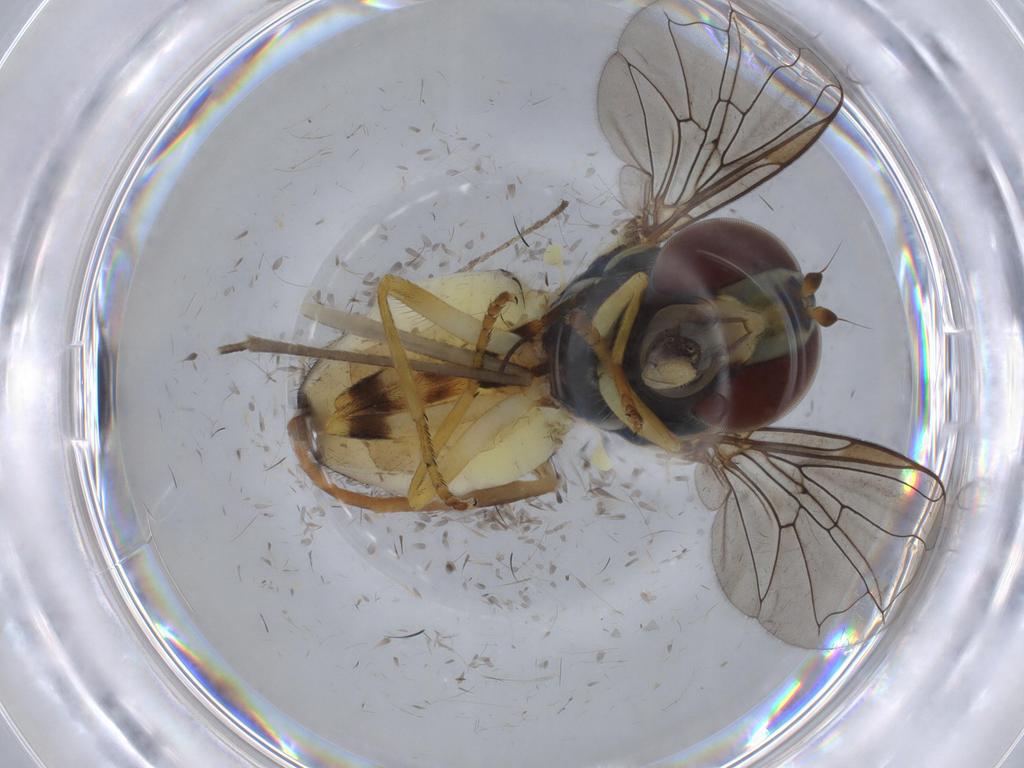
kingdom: Animalia
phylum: Arthropoda
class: Insecta
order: Diptera
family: Syrphidae
